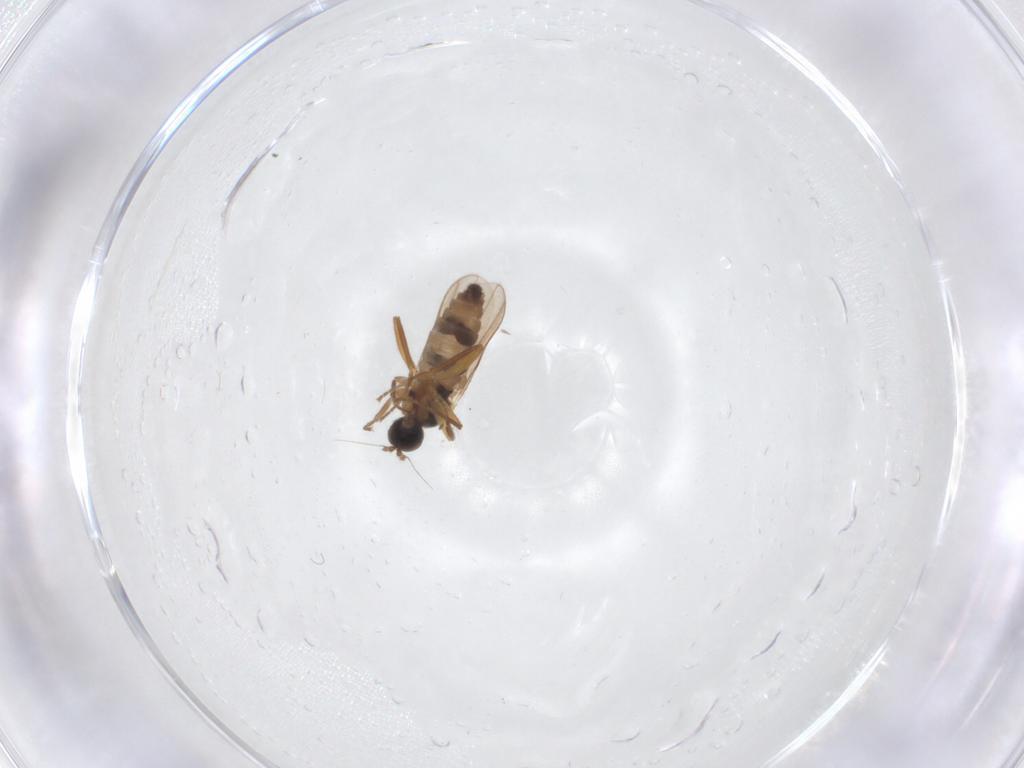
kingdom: Animalia
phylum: Arthropoda
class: Insecta
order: Diptera
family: Hybotidae
